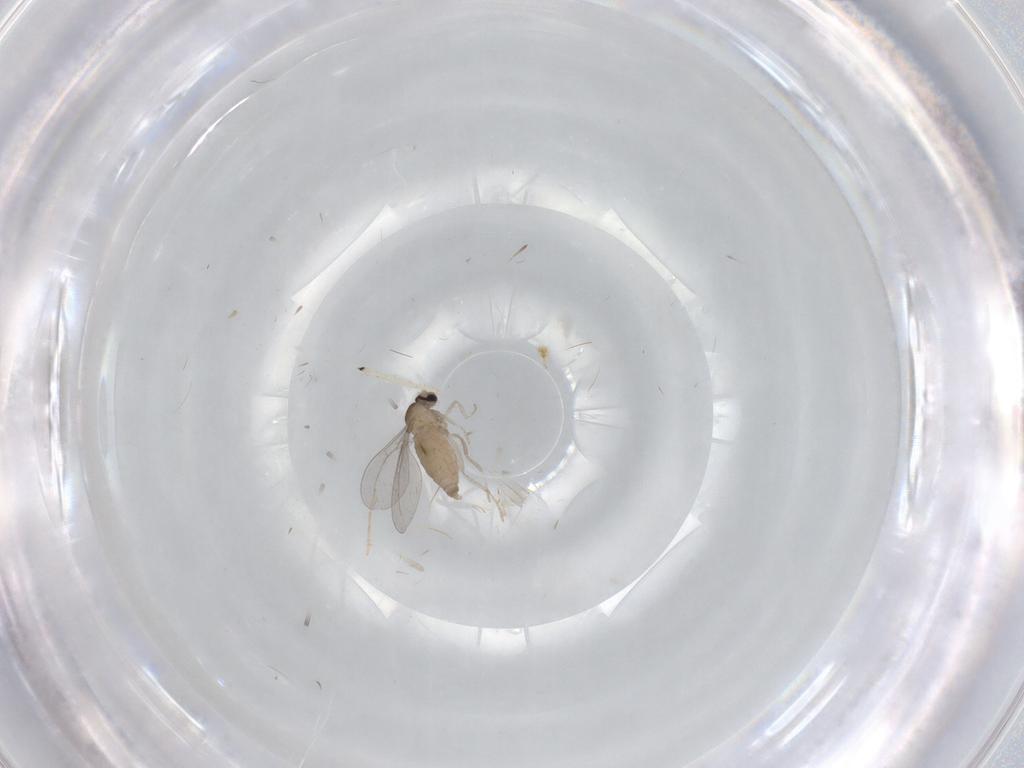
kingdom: Animalia
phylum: Arthropoda
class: Insecta
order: Diptera
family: Cecidomyiidae
